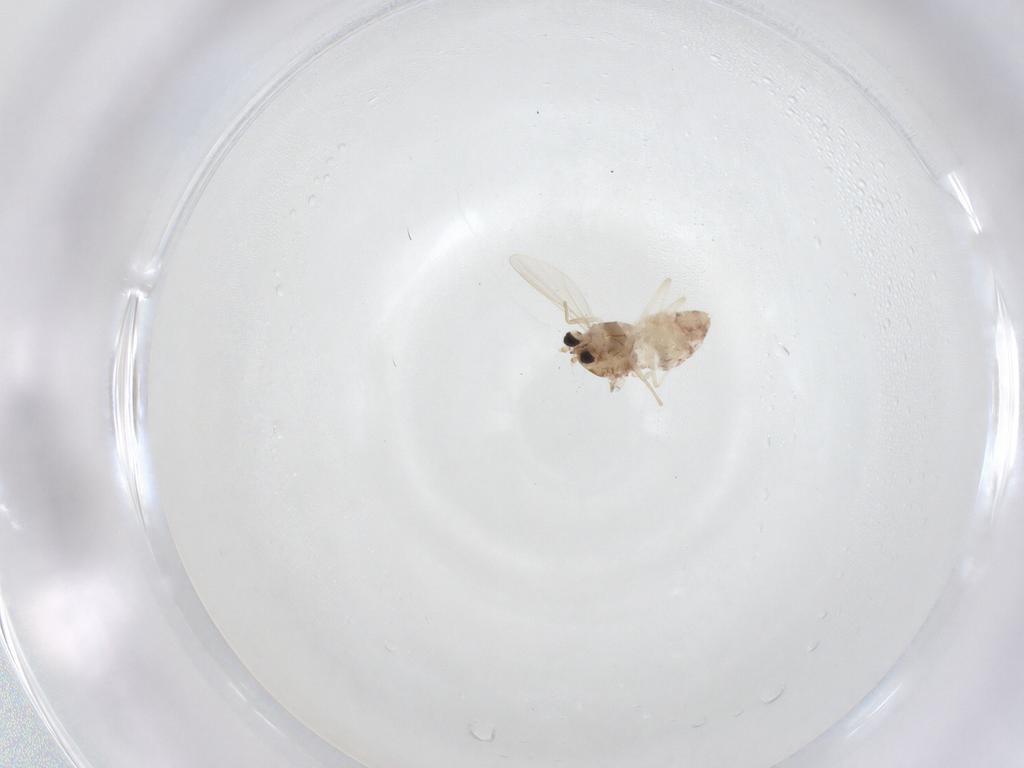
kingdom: Animalia
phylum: Arthropoda
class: Insecta
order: Diptera
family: Chironomidae
